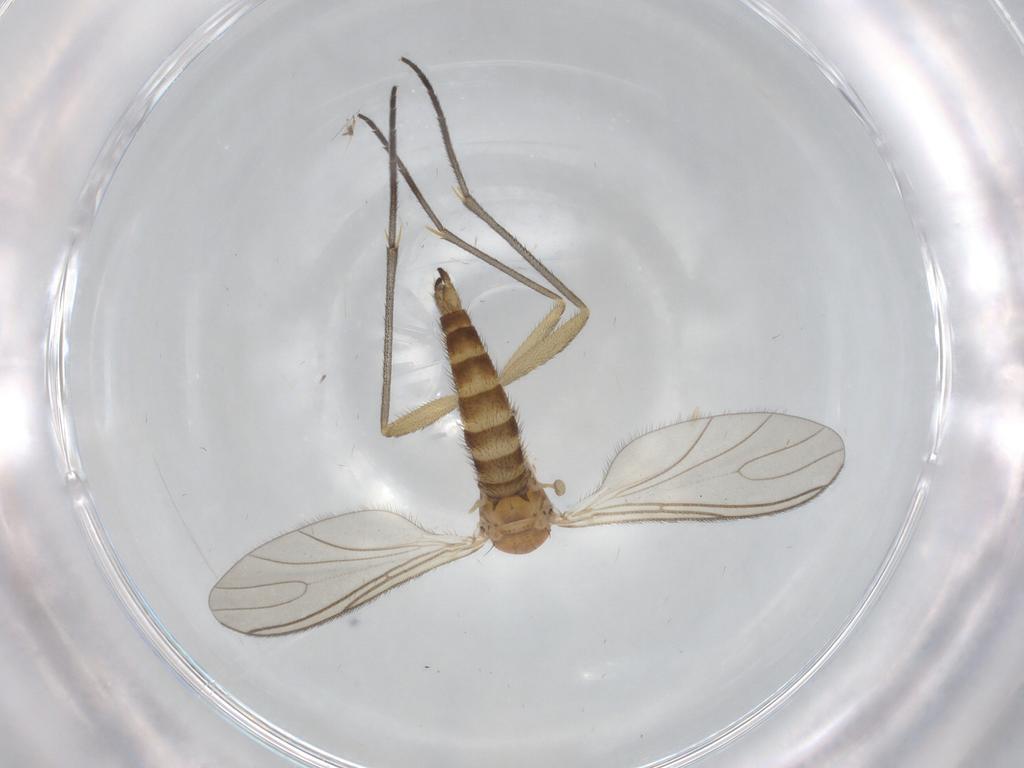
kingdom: Animalia
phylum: Arthropoda
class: Insecta
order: Diptera
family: Sciaridae
